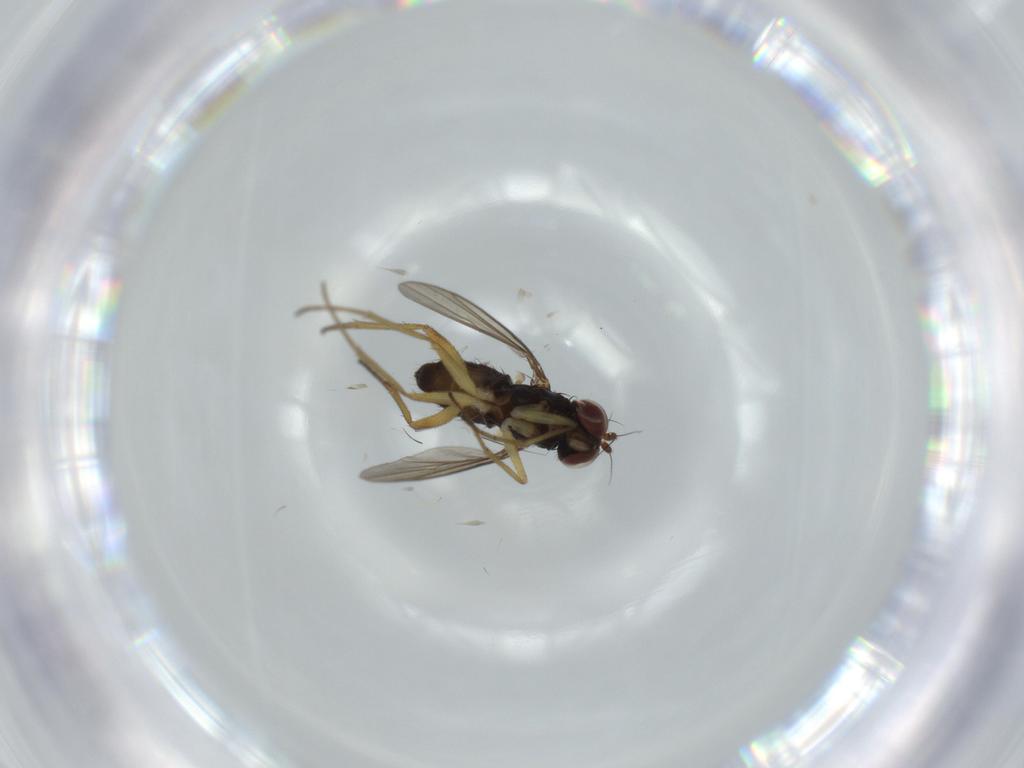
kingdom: Animalia
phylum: Arthropoda
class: Insecta
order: Diptera
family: Dolichopodidae
